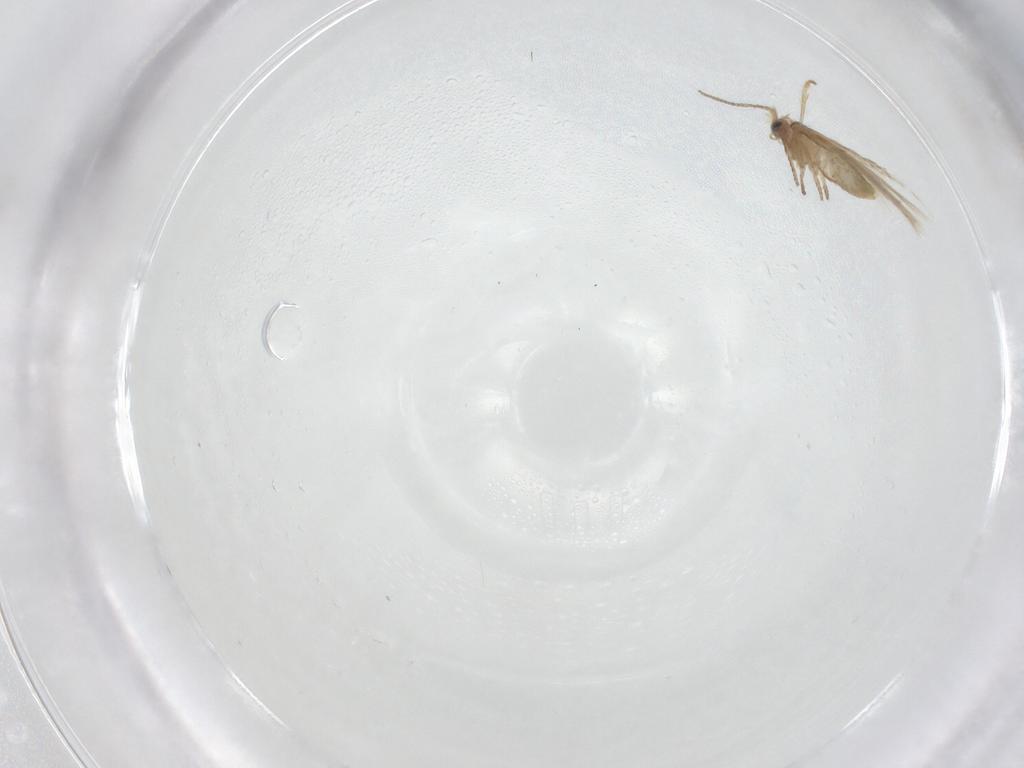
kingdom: Animalia
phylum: Arthropoda
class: Insecta
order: Lepidoptera
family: Nepticulidae
